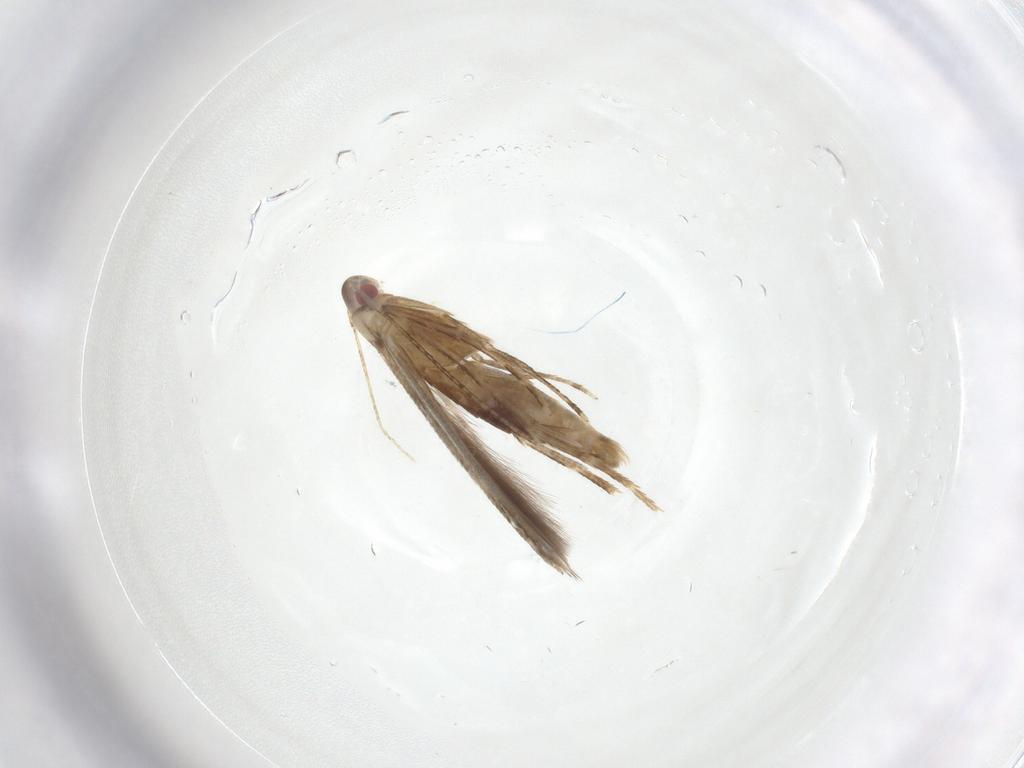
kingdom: Animalia
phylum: Arthropoda
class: Insecta
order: Lepidoptera
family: Cosmopterigidae
